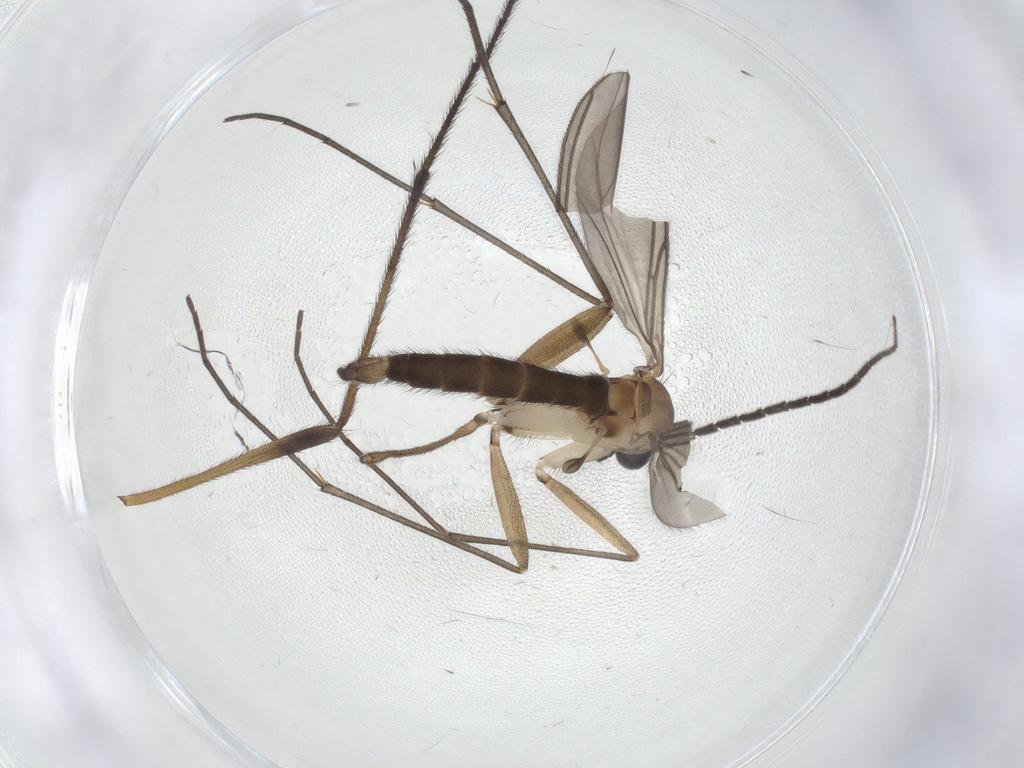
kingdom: Animalia
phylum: Arthropoda
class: Insecta
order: Diptera
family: Sciaridae
